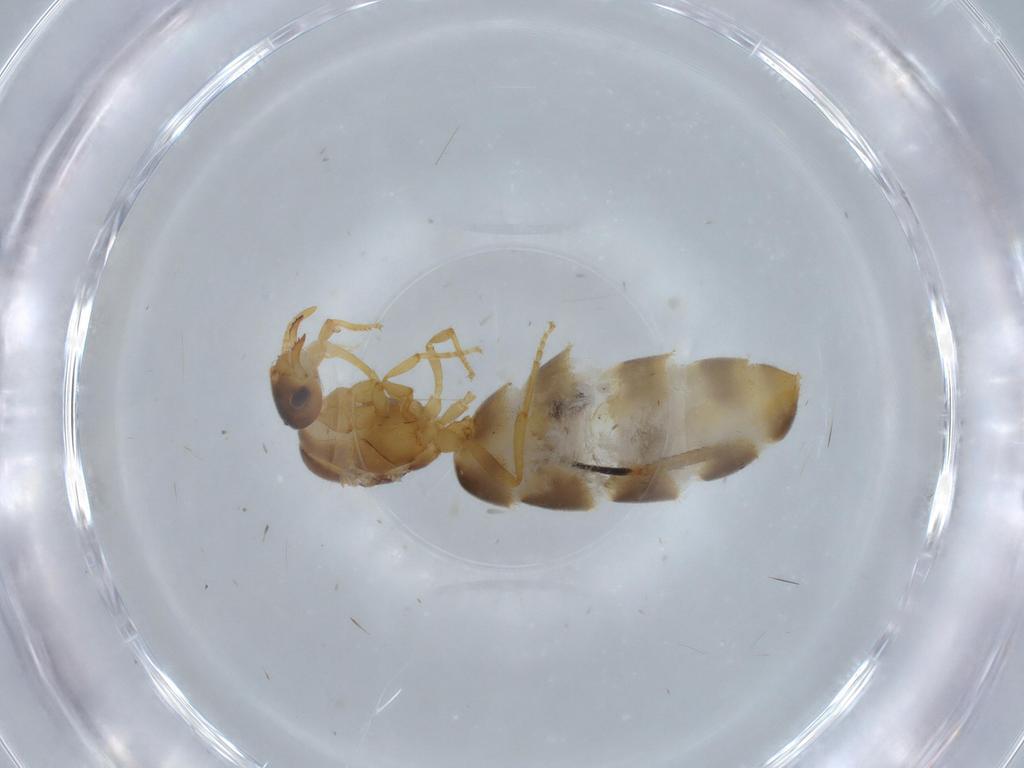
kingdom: Animalia
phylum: Arthropoda
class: Insecta
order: Hymenoptera
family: Formicidae
